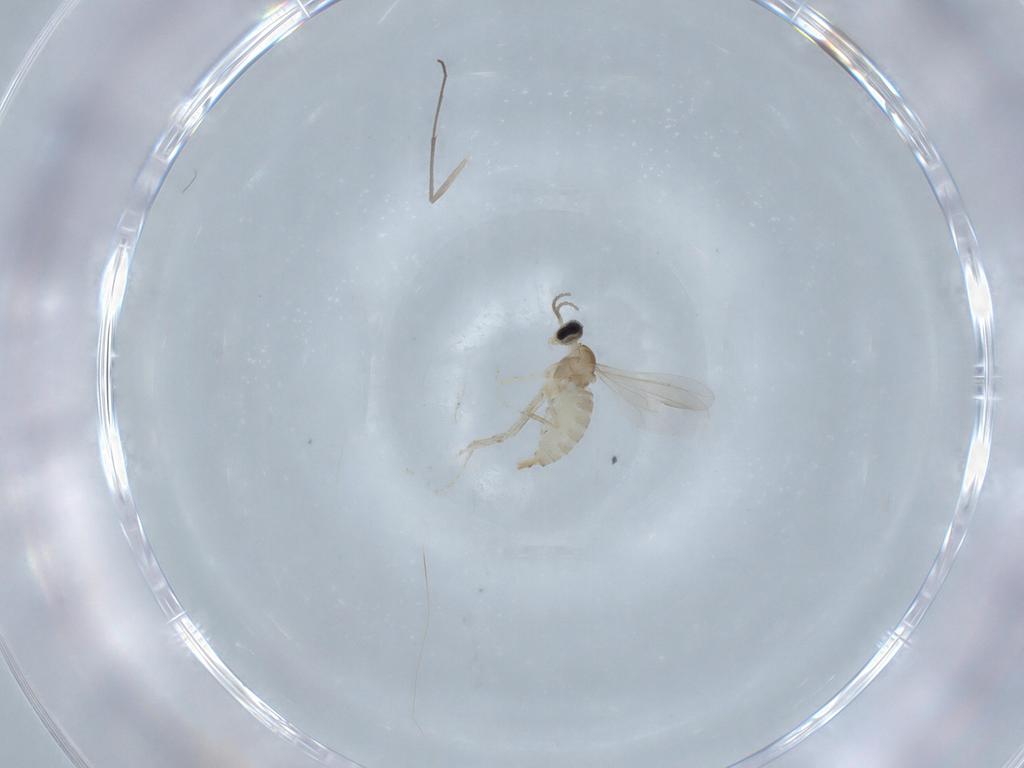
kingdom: Animalia
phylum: Arthropoda
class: Insecta
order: Diptera
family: Cecidomyiidae
